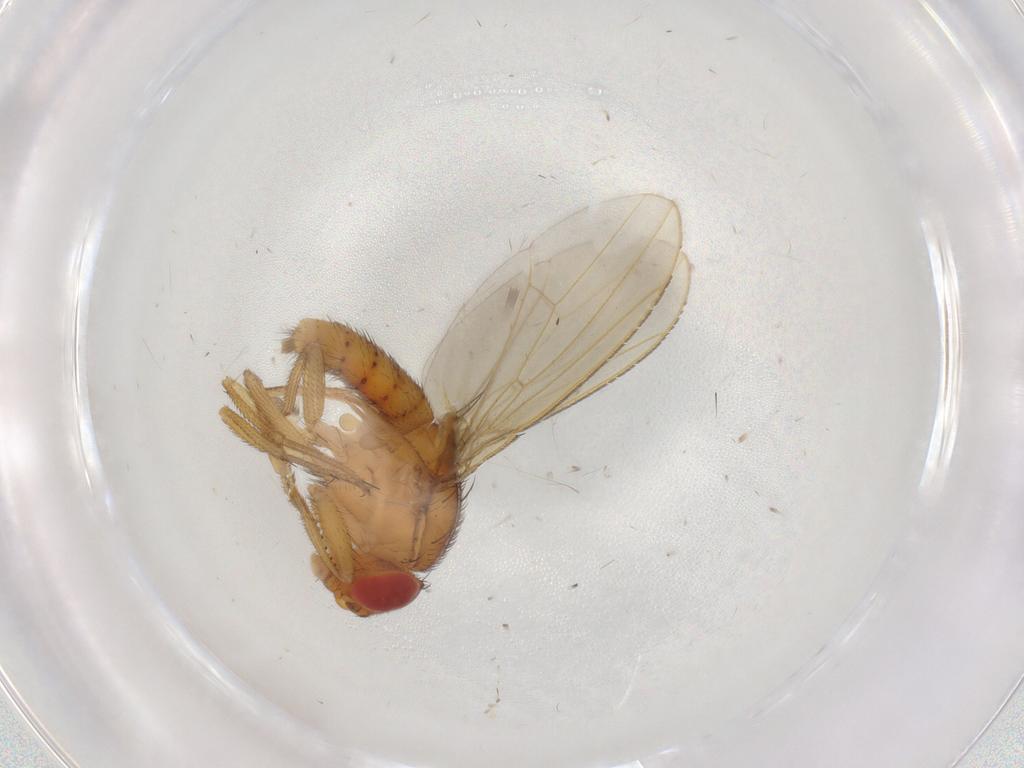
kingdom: Animalia
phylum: Arthropoda
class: Insecta
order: Diptera
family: Drosophilidae
